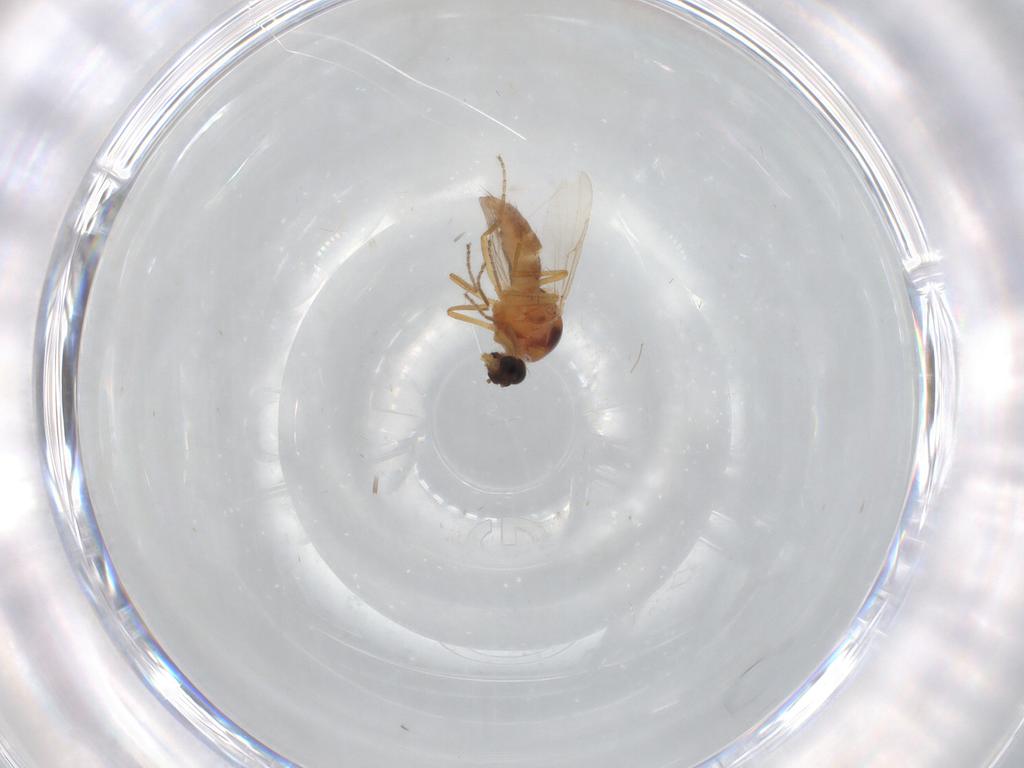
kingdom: Animalia
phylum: Arthropoda
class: Insecta
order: Diptera
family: Ceratopogonidae
